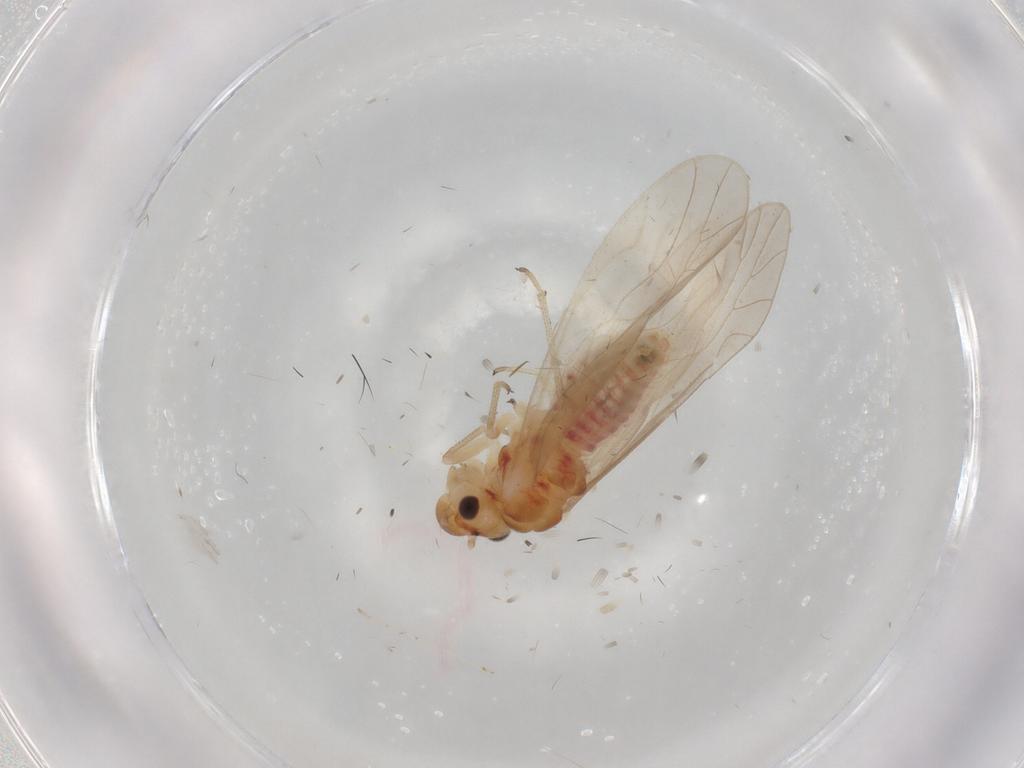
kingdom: Animalia
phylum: Arthropoda
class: Insecta
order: Psocodea
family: Caeciliusidae
